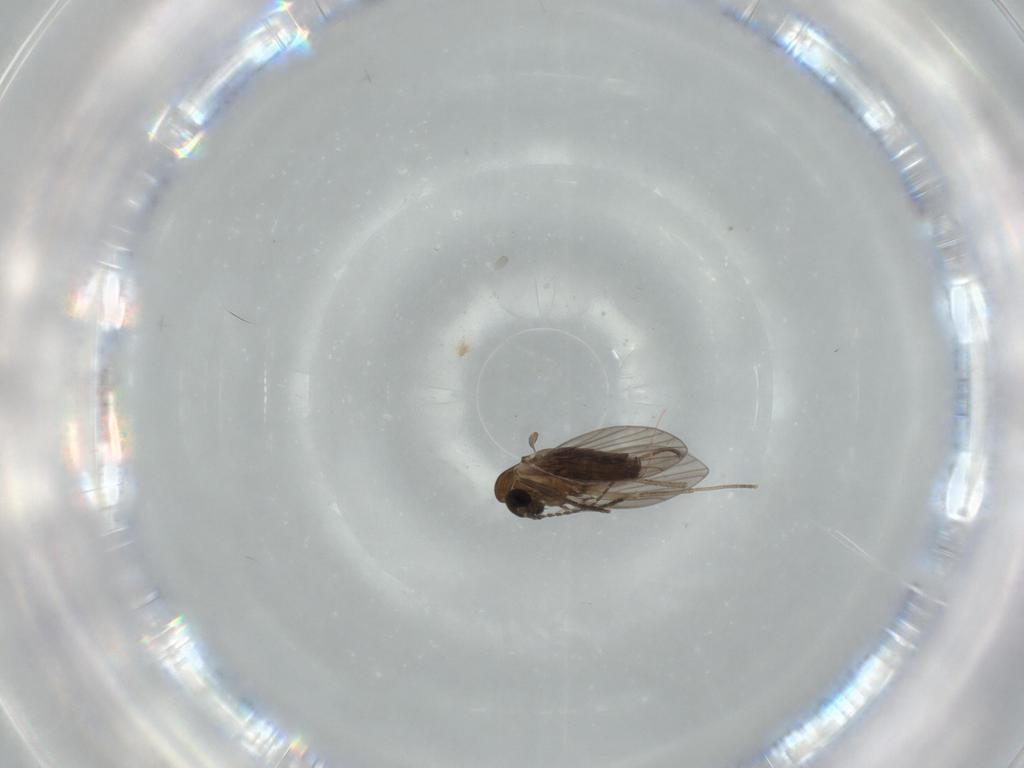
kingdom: Animalia
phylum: Arthropoda
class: Insecta
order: Diptera
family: Psychodidae
